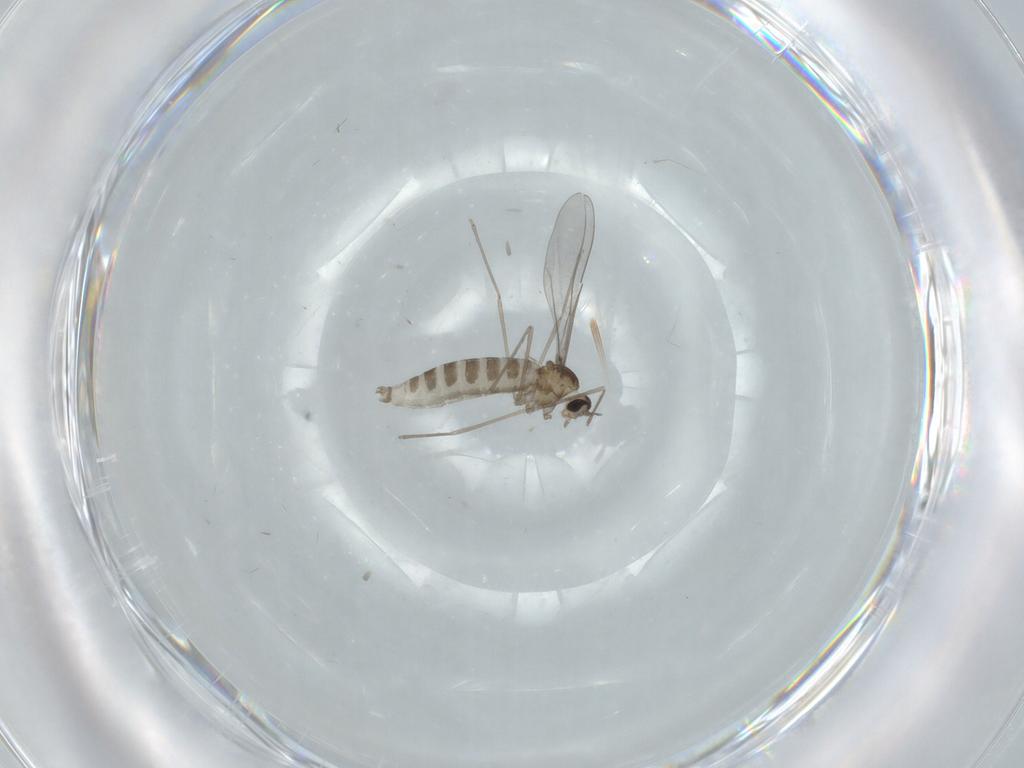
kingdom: Animalia
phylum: Arthropoda
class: Insecta
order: Diptera
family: Cecidomyiidae
